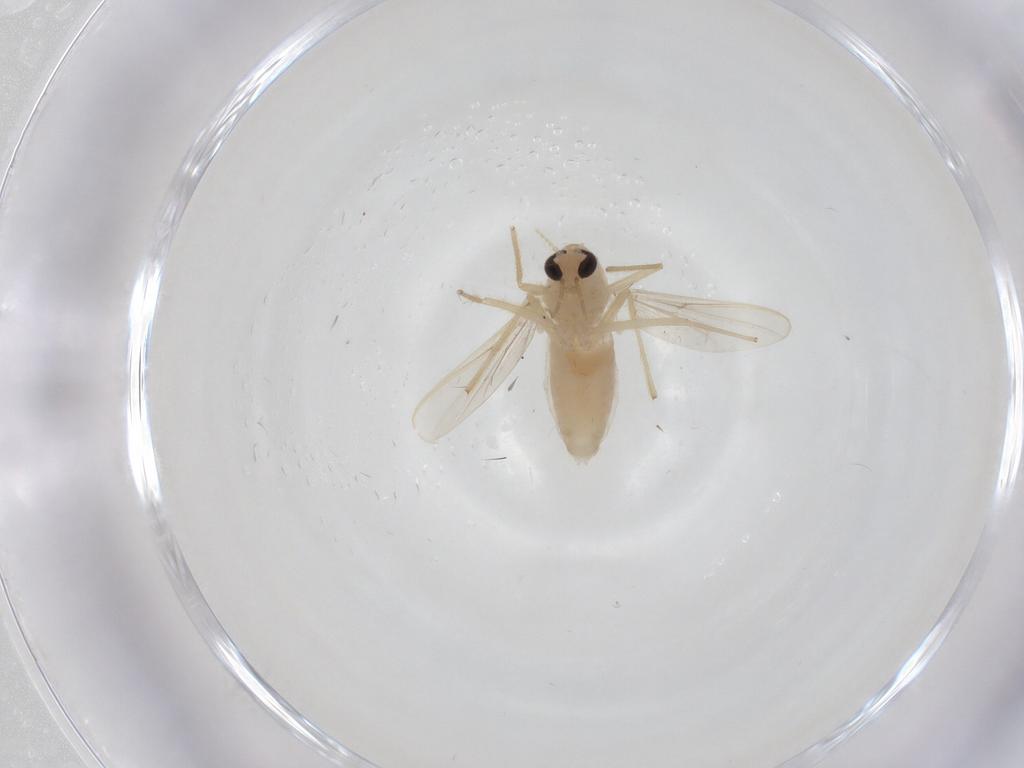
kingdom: Animalia
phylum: Arthropoda
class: Insecta
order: Diptera
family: Chironomidae
